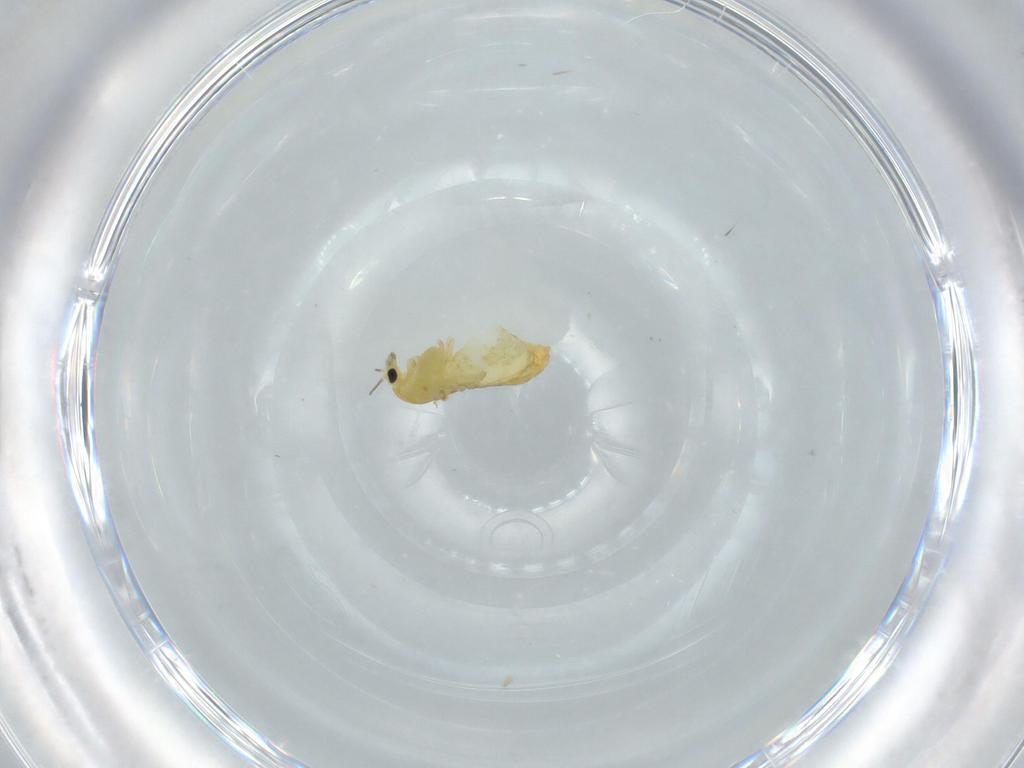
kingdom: Animalia
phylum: Arthropoda
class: Insecta
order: Diptera
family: Chironomidae
